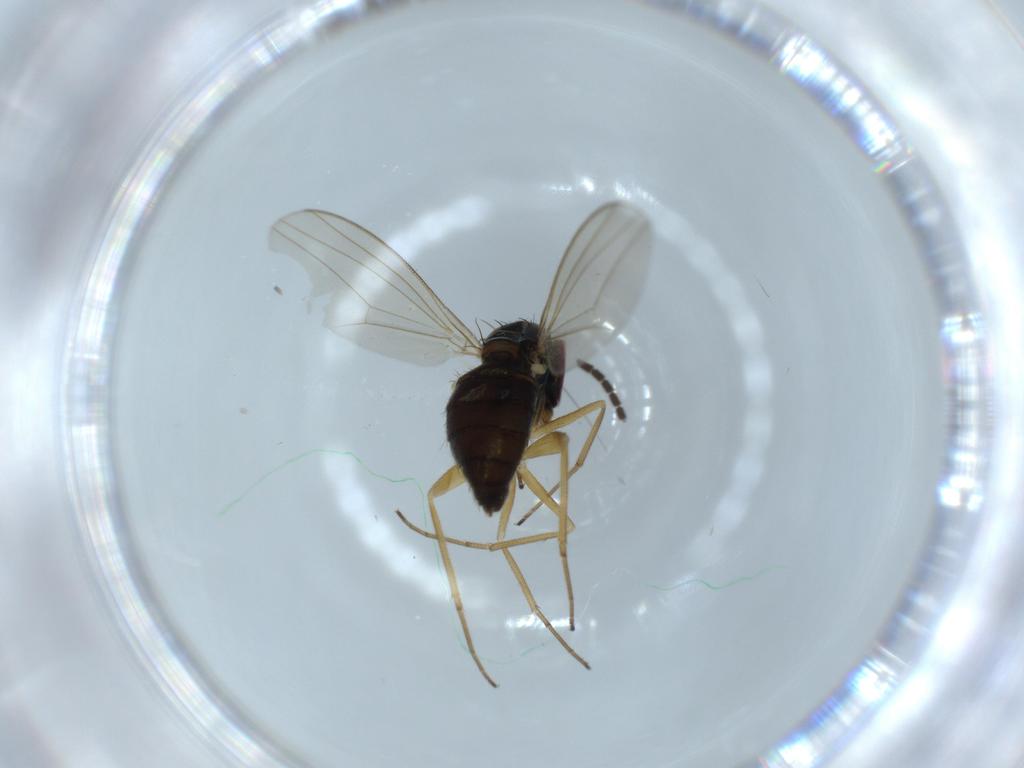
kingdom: Animalia
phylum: Arthropoda
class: Insecta
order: Diptera
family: Dolichopodidae
